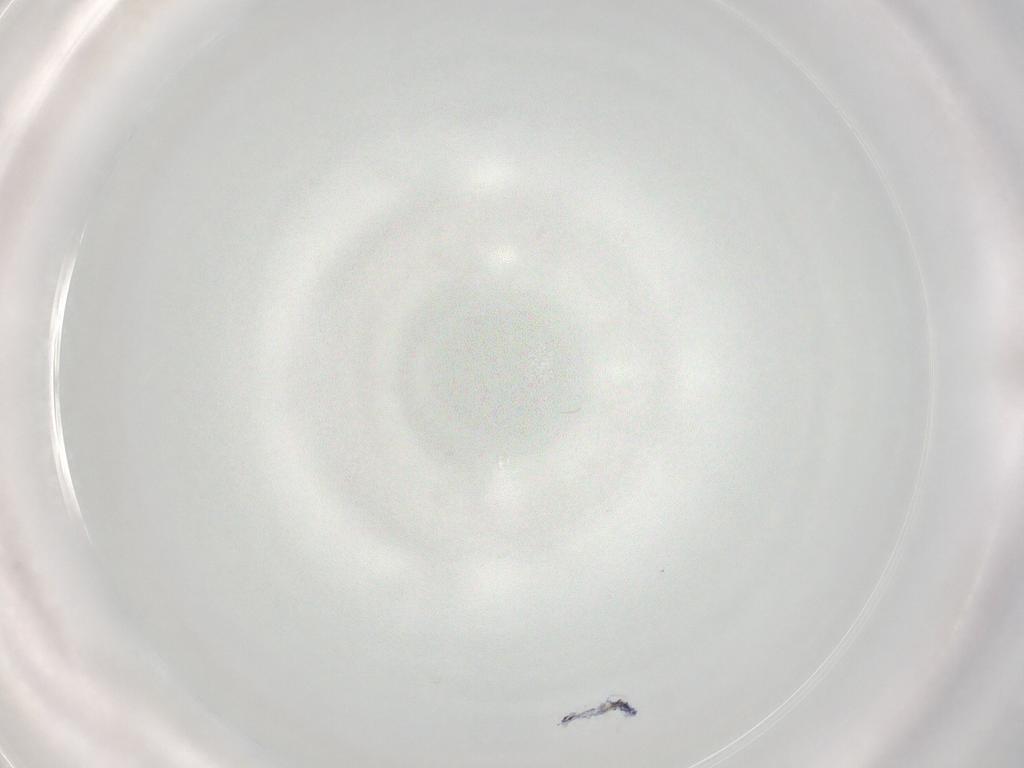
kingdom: Animalia
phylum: Arthropoda
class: Collembola
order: Entomobryomorpha
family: Entomobryidae
